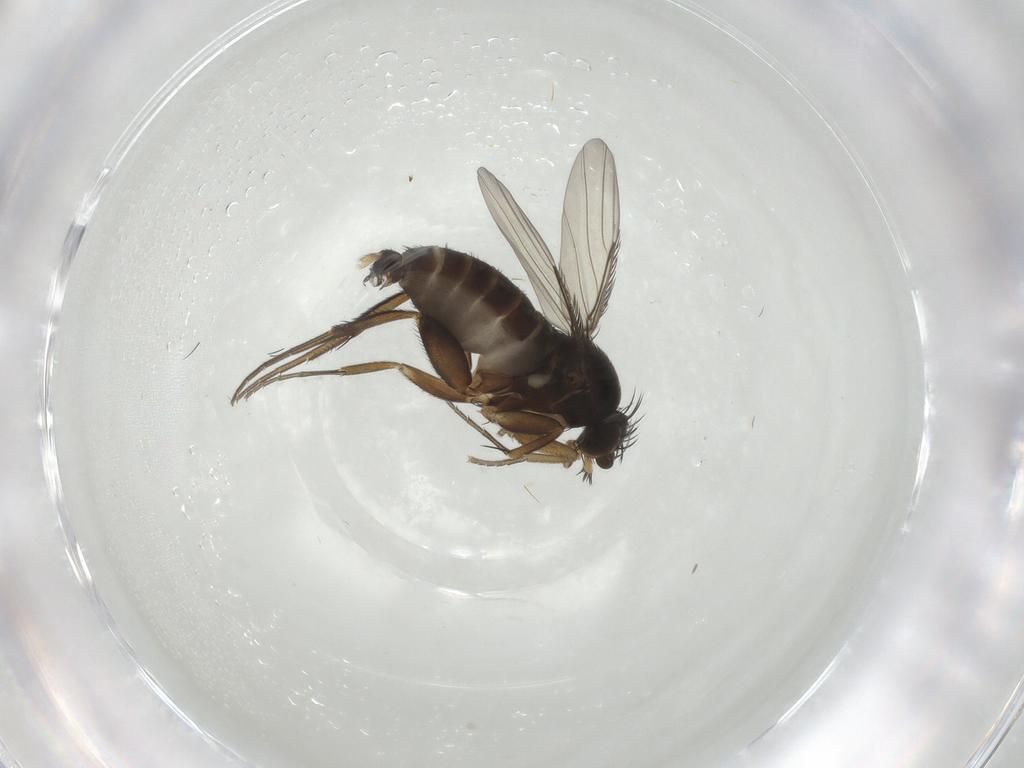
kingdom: Animalia
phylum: Arthropoda
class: Insecta
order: Diptera
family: Phoridae
